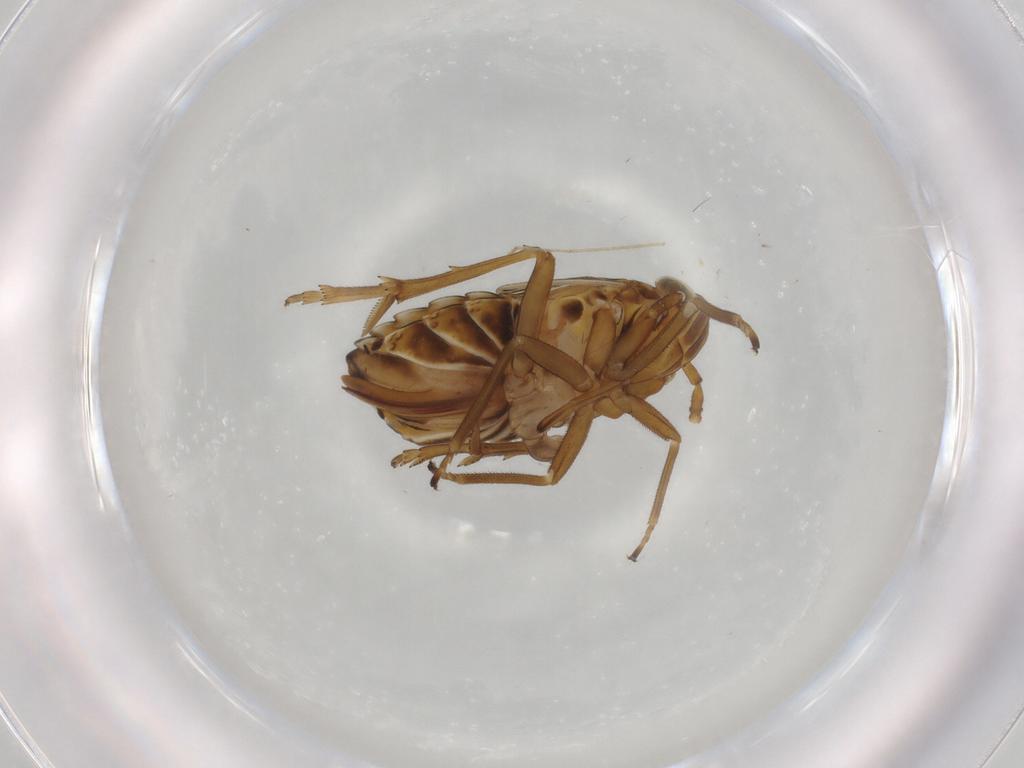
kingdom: Animalia
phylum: Arthropoda
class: Insecta
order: Hemiptera
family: Delphacidae
